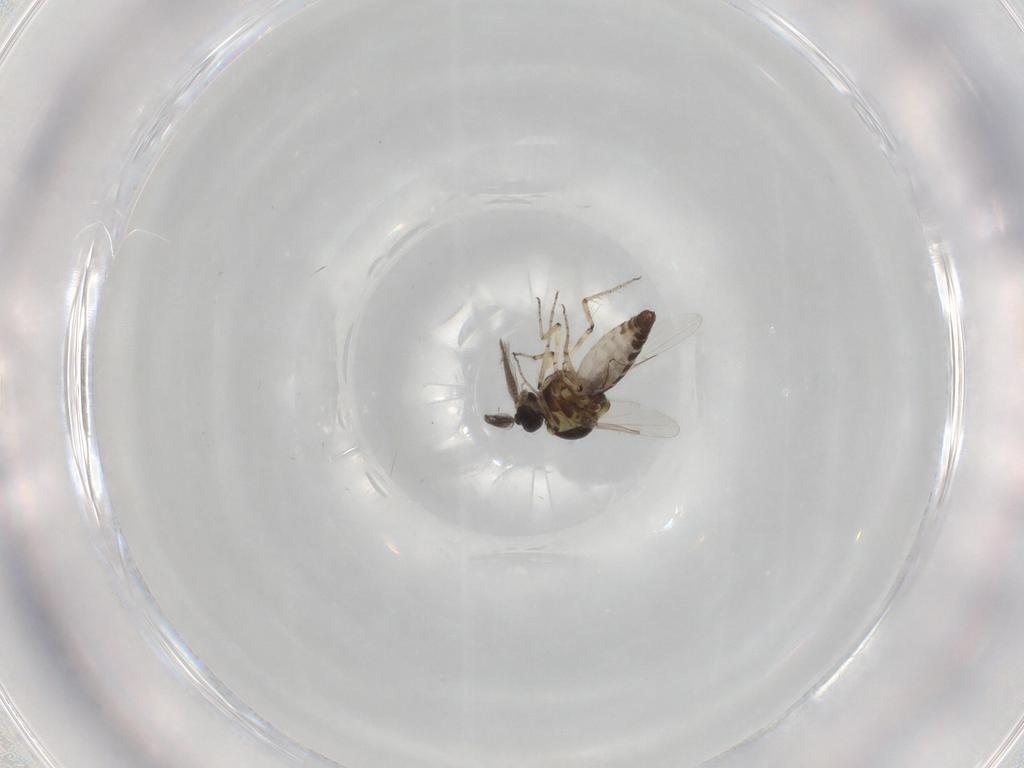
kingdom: Animalia
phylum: Arthropoda
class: Insecta
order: Diptera
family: Ceratopogonidae
